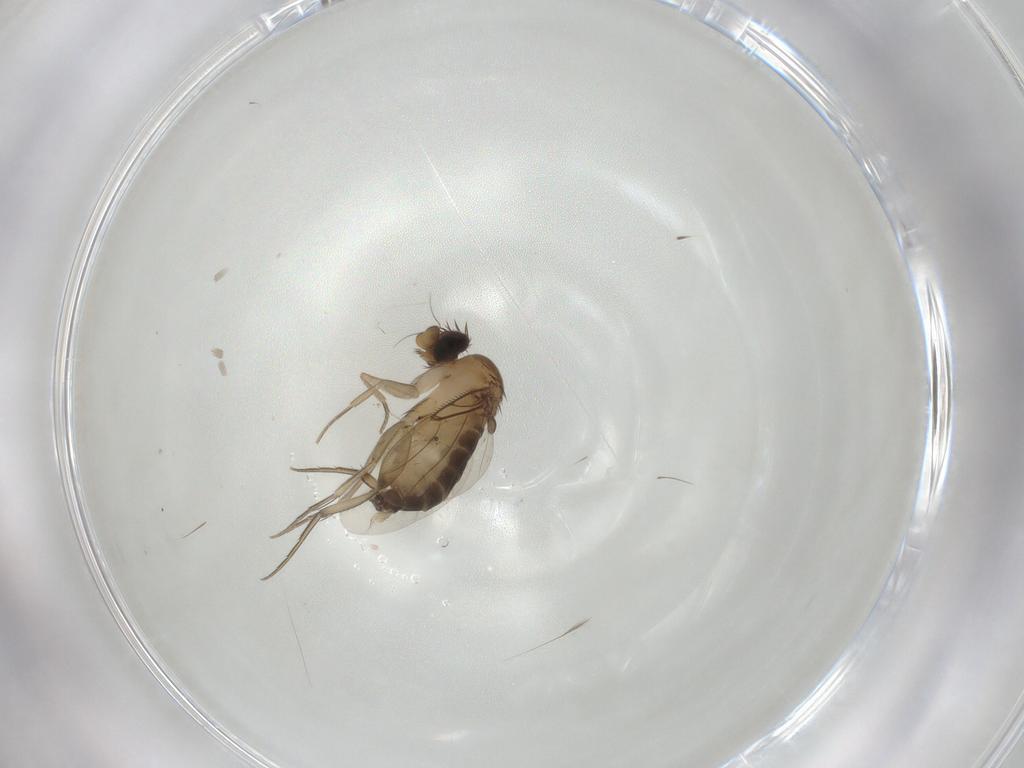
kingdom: Animalia
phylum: Arthropoda
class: Insecta
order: Diptera
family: Phoridae
